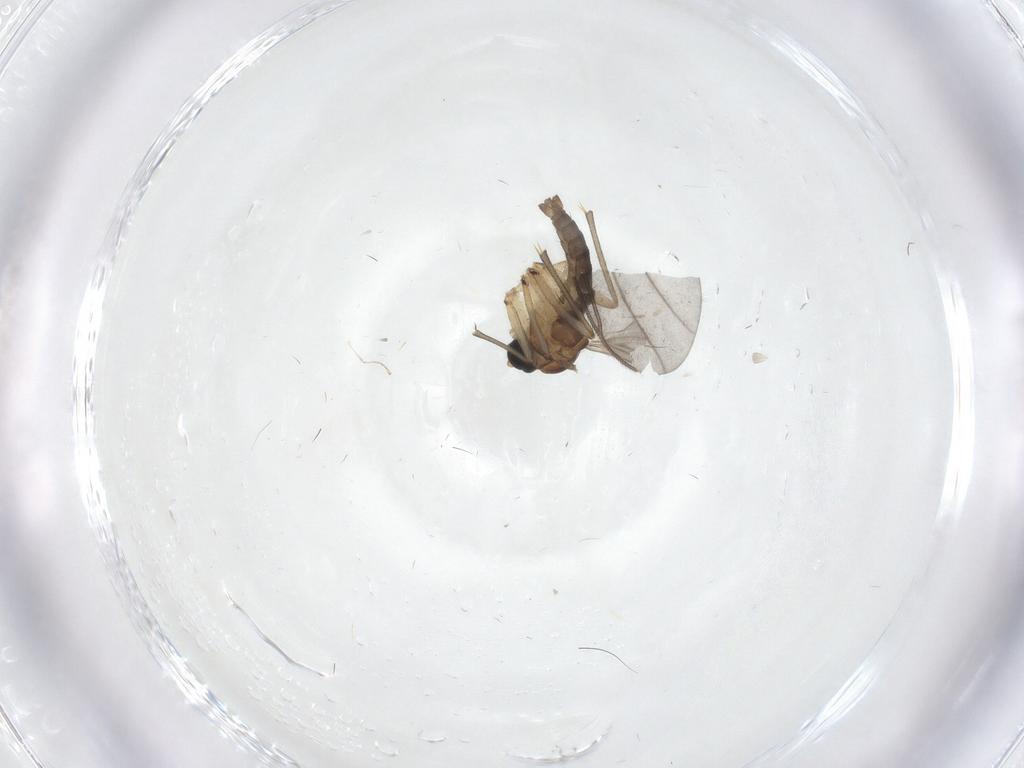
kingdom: Animalia
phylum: Arthropoda
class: Insecta
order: Diptera
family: Sciaridae
